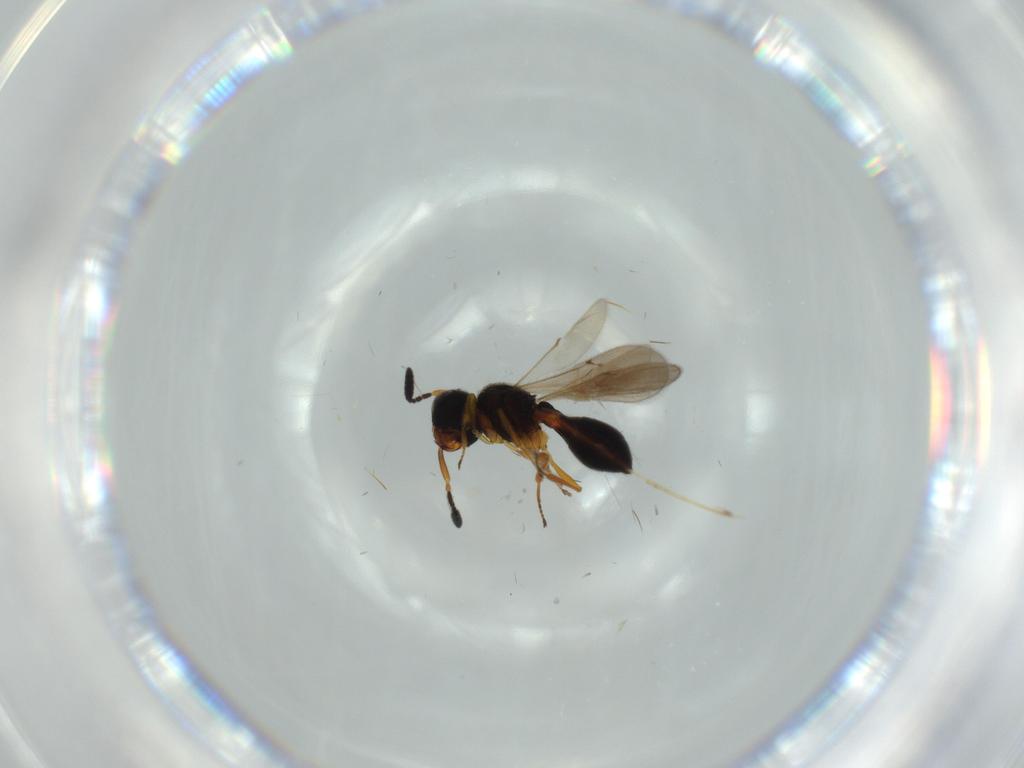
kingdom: Animalia
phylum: Arthropoda
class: Insecta
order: Hymenoptera
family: Scelionidae
